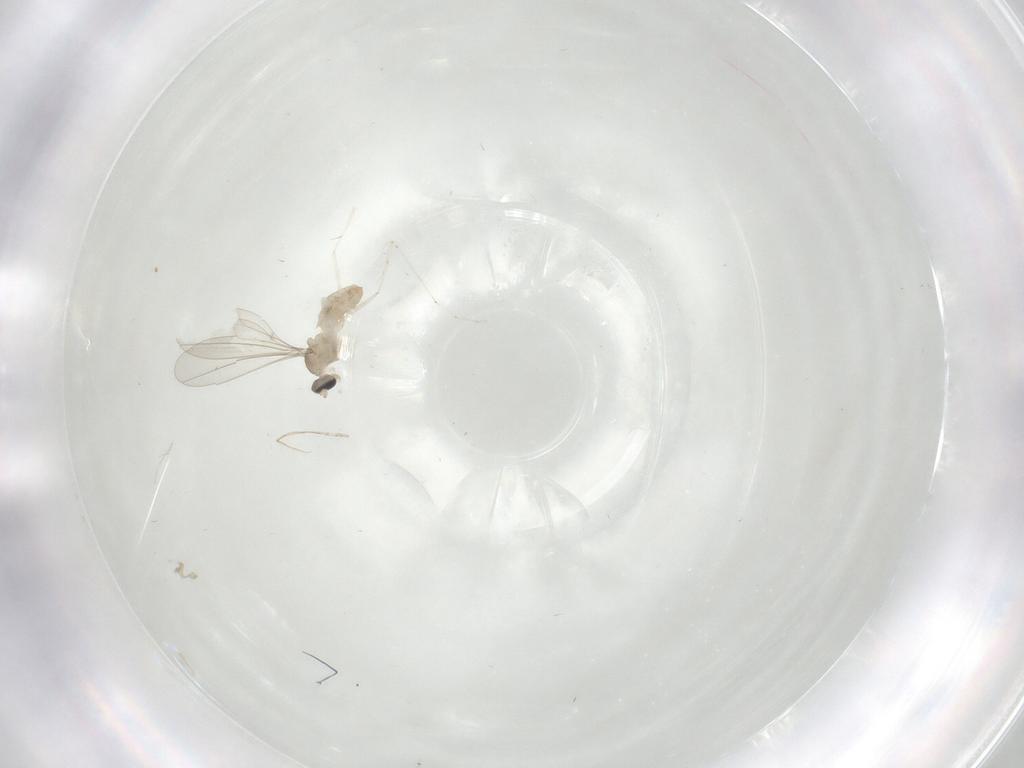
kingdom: Animalia
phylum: Arthropoda
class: Insecta
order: Diptera
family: Cecidomyiidae
